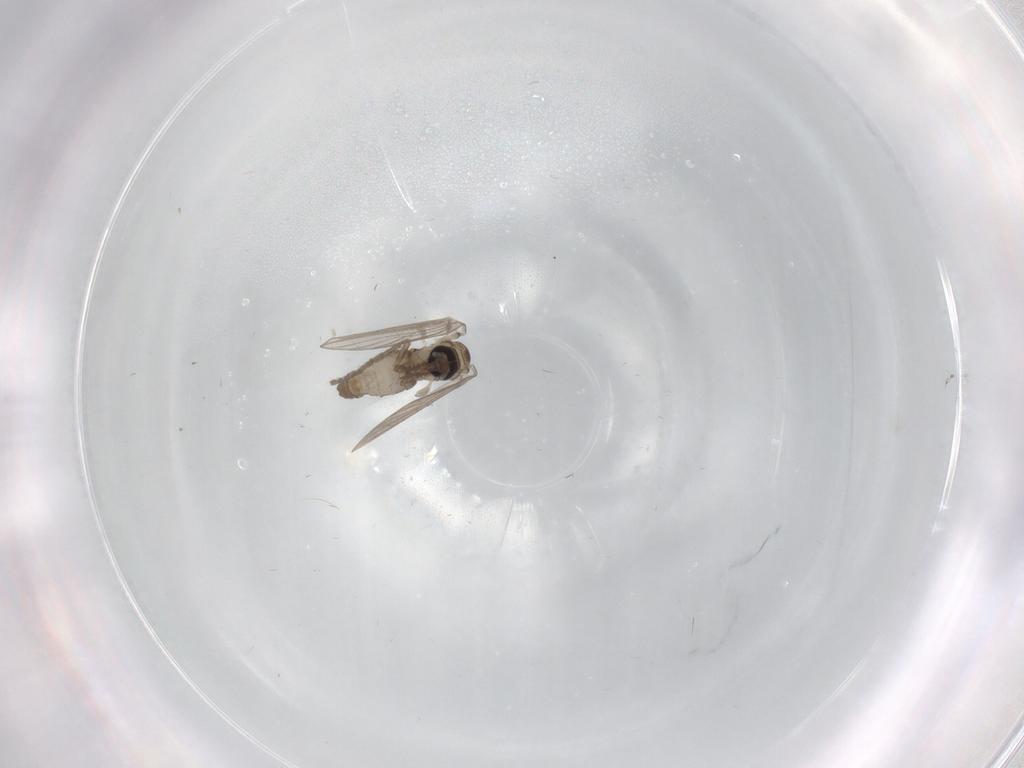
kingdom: Animalia
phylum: Arthropoda
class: Insecta
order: Diptera
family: Psychodidae
